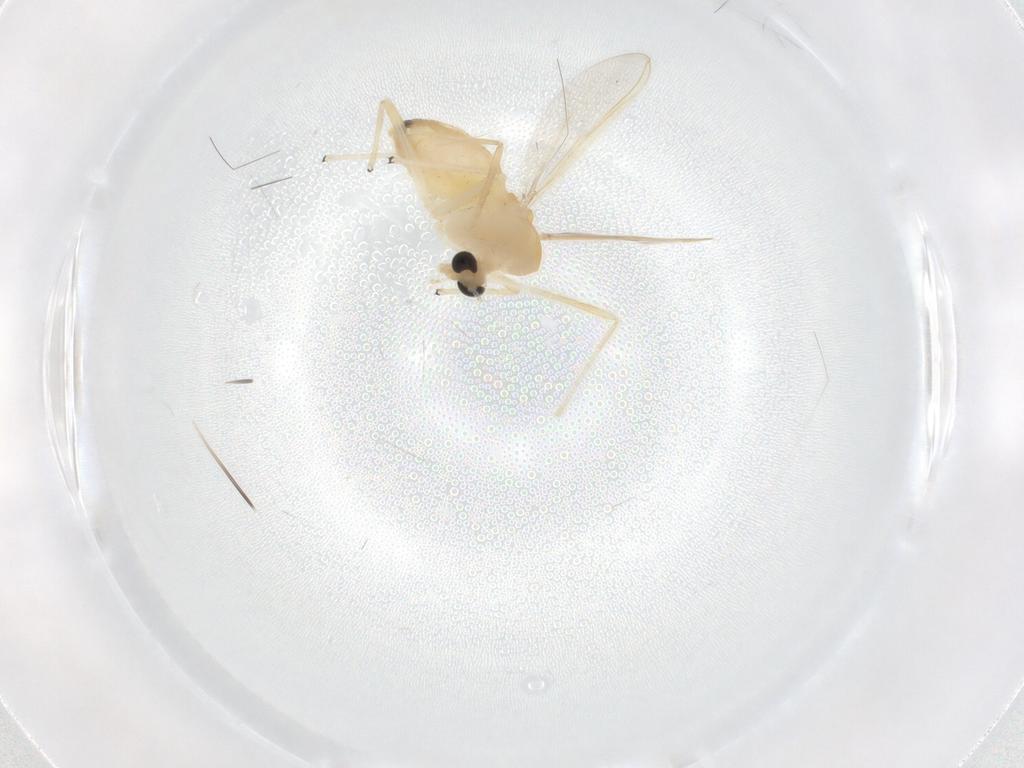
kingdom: Animalia
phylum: Arthropoda
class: Insecta
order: Diptera
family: Chironomidae
